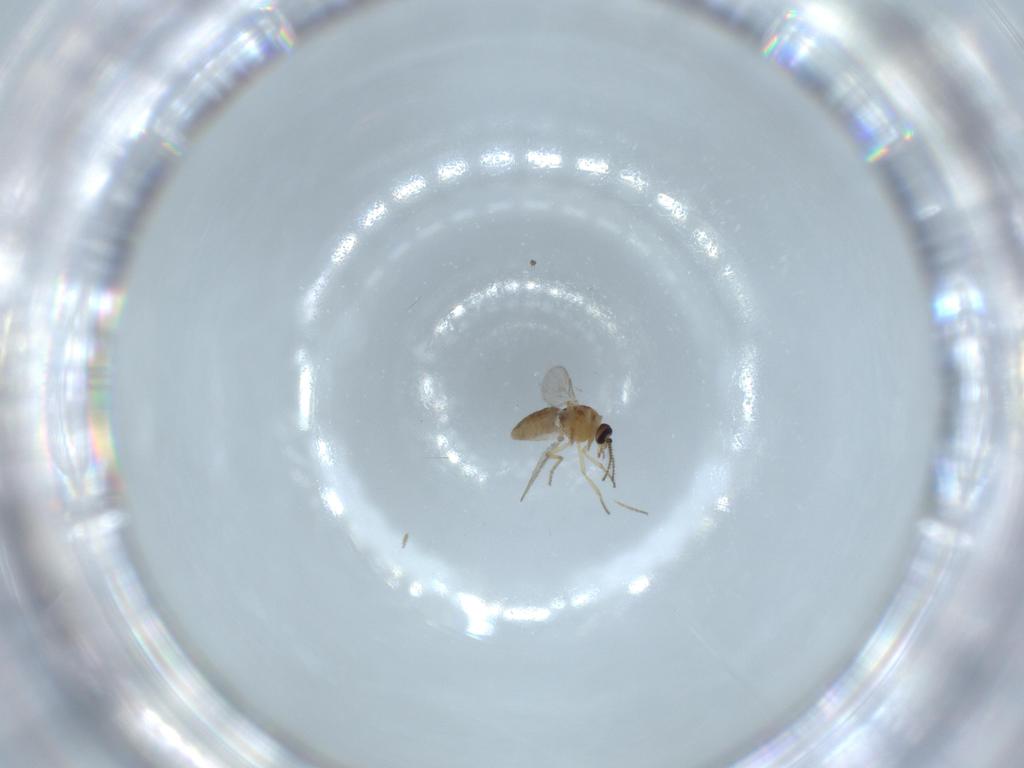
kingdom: Animalia
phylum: Arthropoda
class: Insecta
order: Diptera
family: Ceratopogonidae
